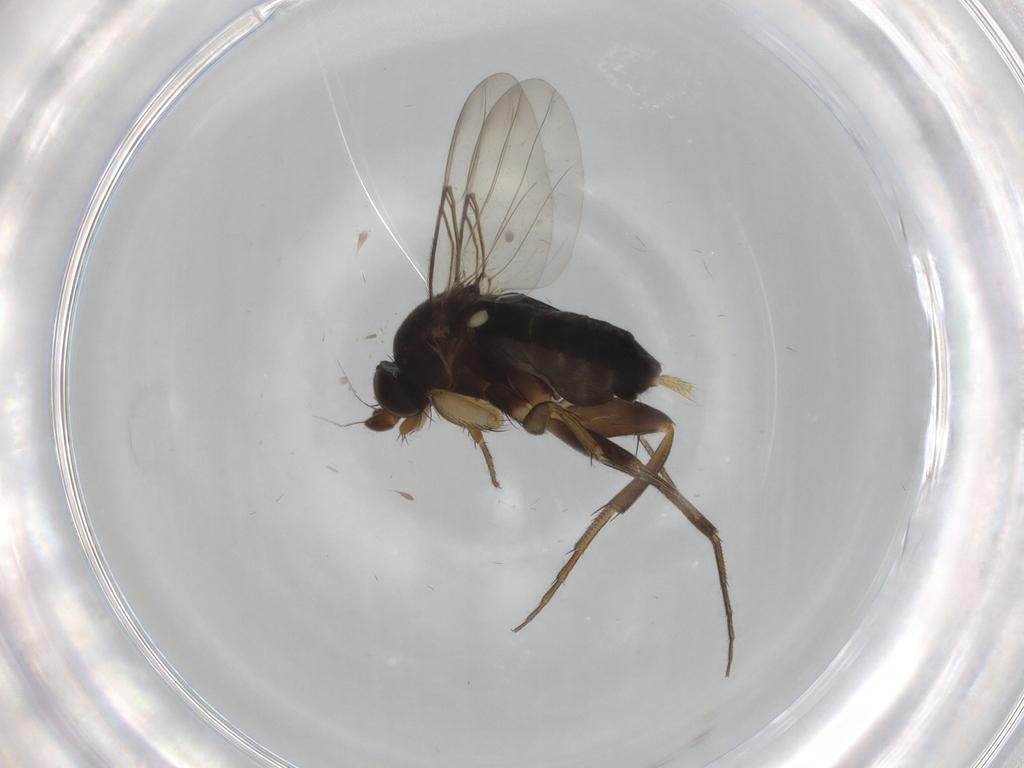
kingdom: Animalia
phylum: Arthropoda
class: Insecta
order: Diptera
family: Phoridae
